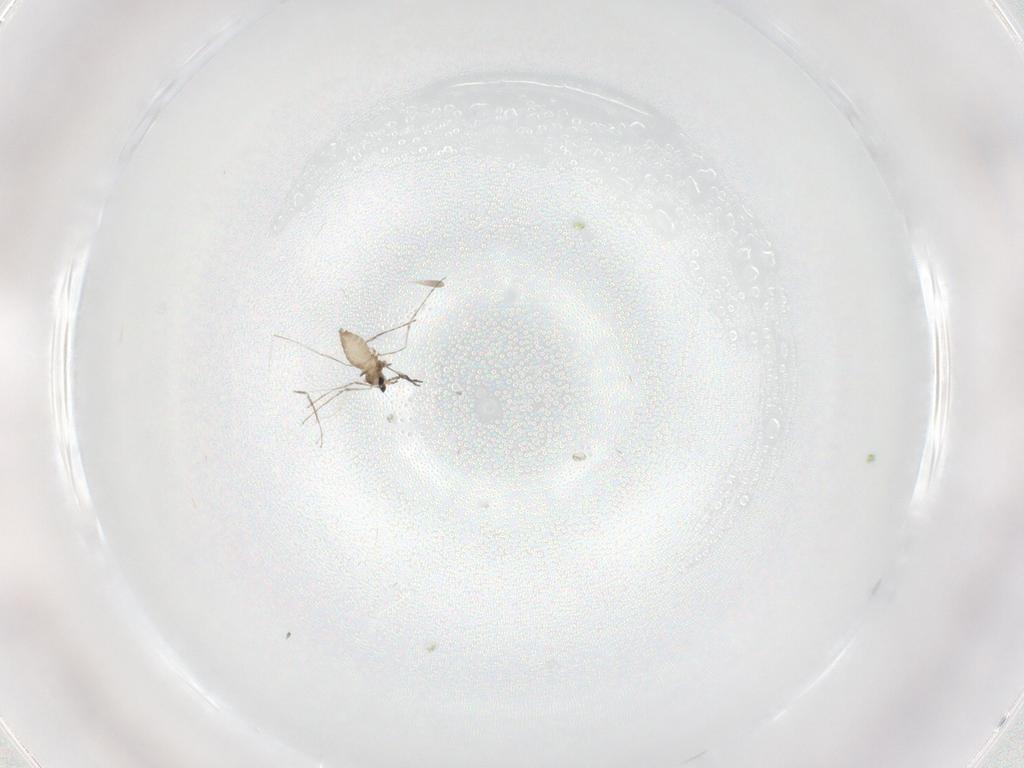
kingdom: Animalia
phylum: Arthropoda
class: Insecta
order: Diptera
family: Cecidomyiidae
